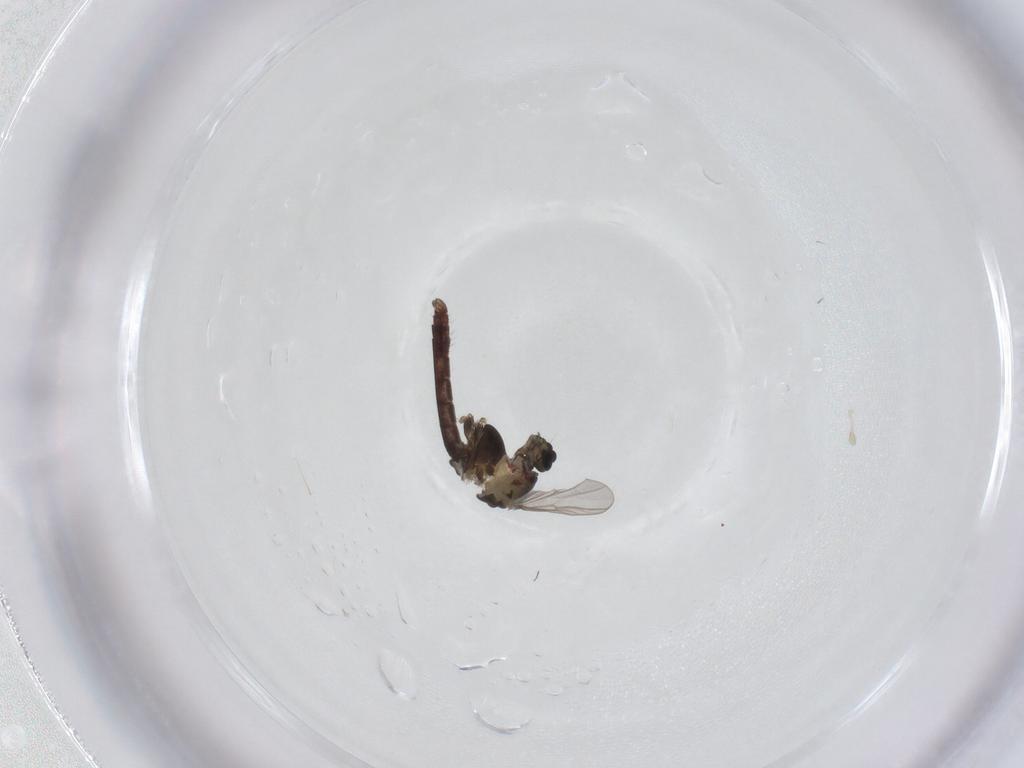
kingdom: Animalia
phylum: Arthropoda
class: Insecta
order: Diptera
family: Chironomidae
